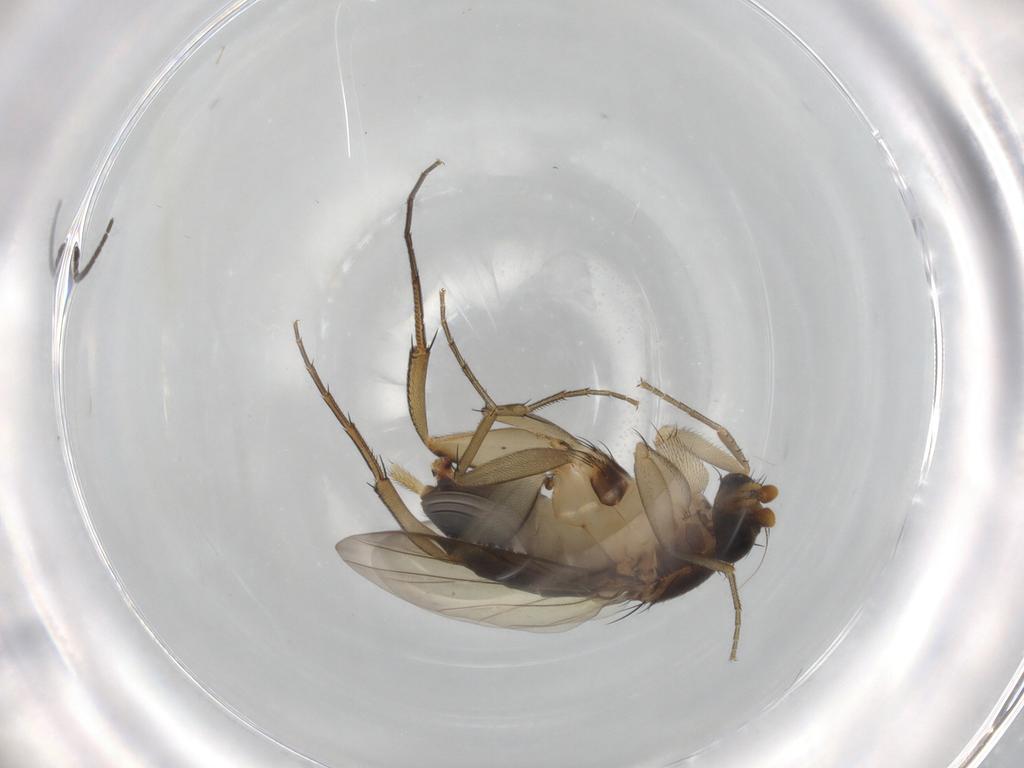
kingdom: Animalia
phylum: Arthropoda
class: Insecta
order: Diptera
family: Sciaridae
